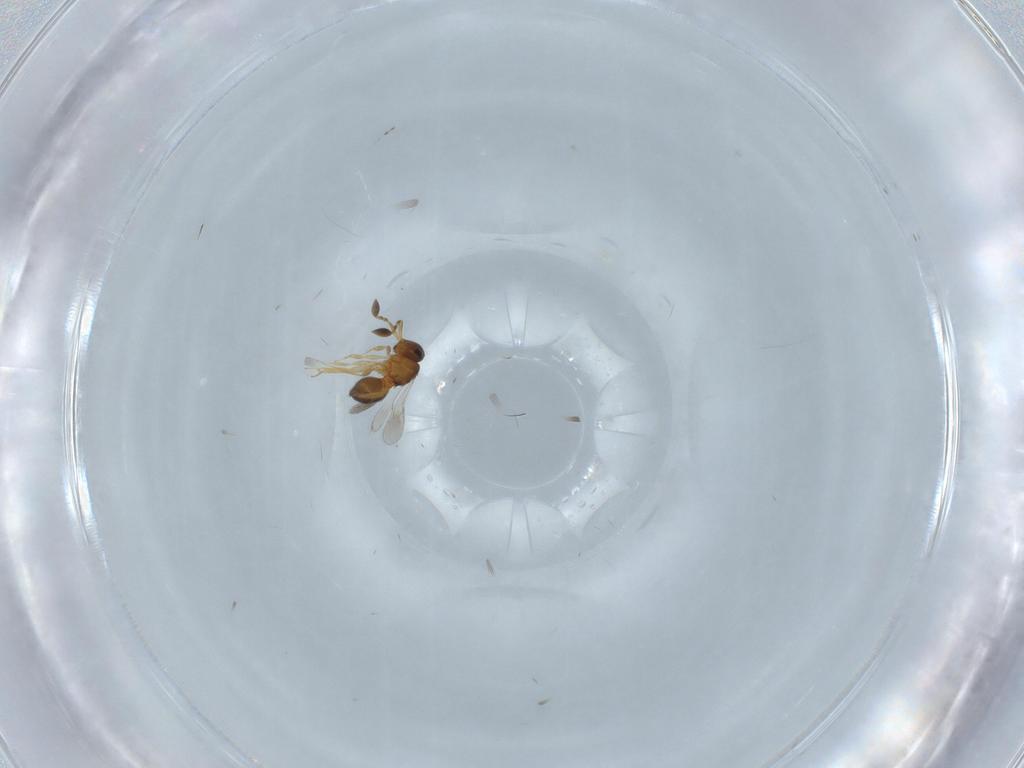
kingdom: Animalia
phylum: Arthropoda
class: Insecta
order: Hymenoptera
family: Scelionidae
